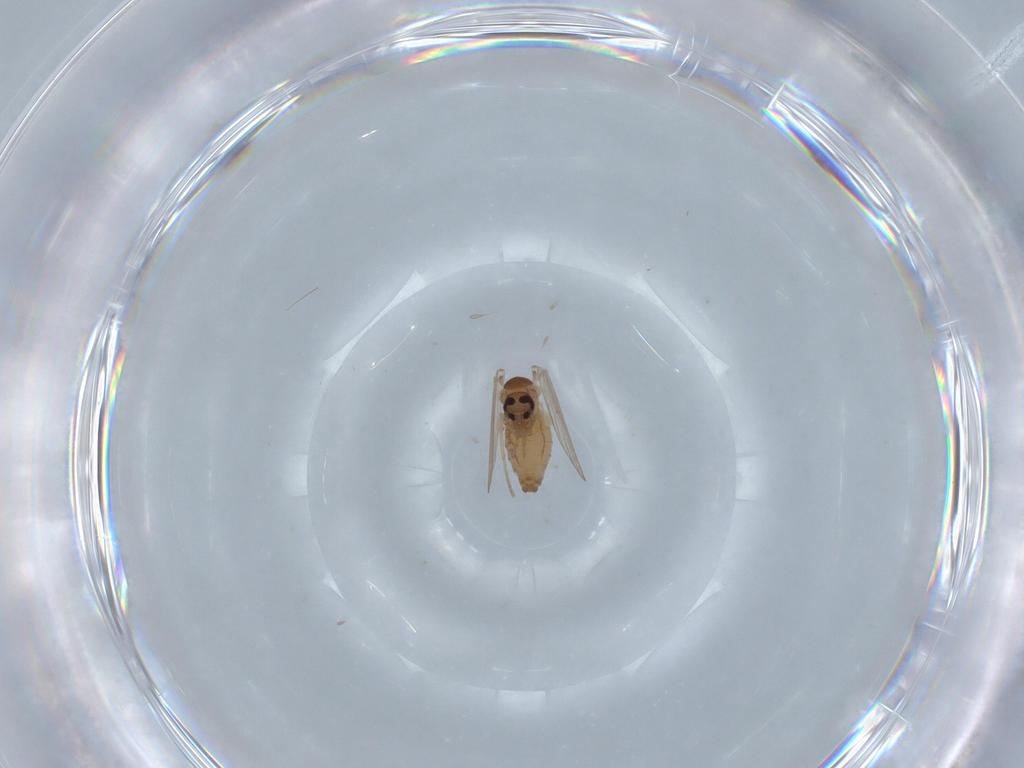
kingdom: Animalia
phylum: Arthropoda
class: Insecta
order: Diptera
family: Psychodidae
